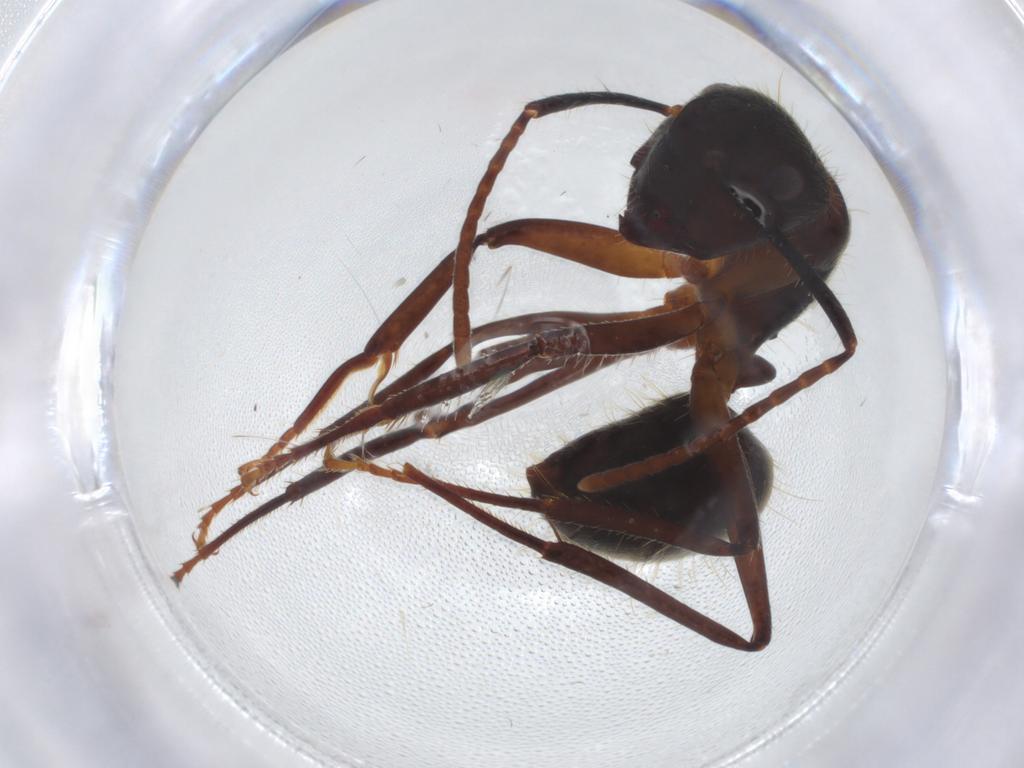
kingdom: Animalia
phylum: Arthropoda
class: Insecta
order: Hymenoptera
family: Formicidae
